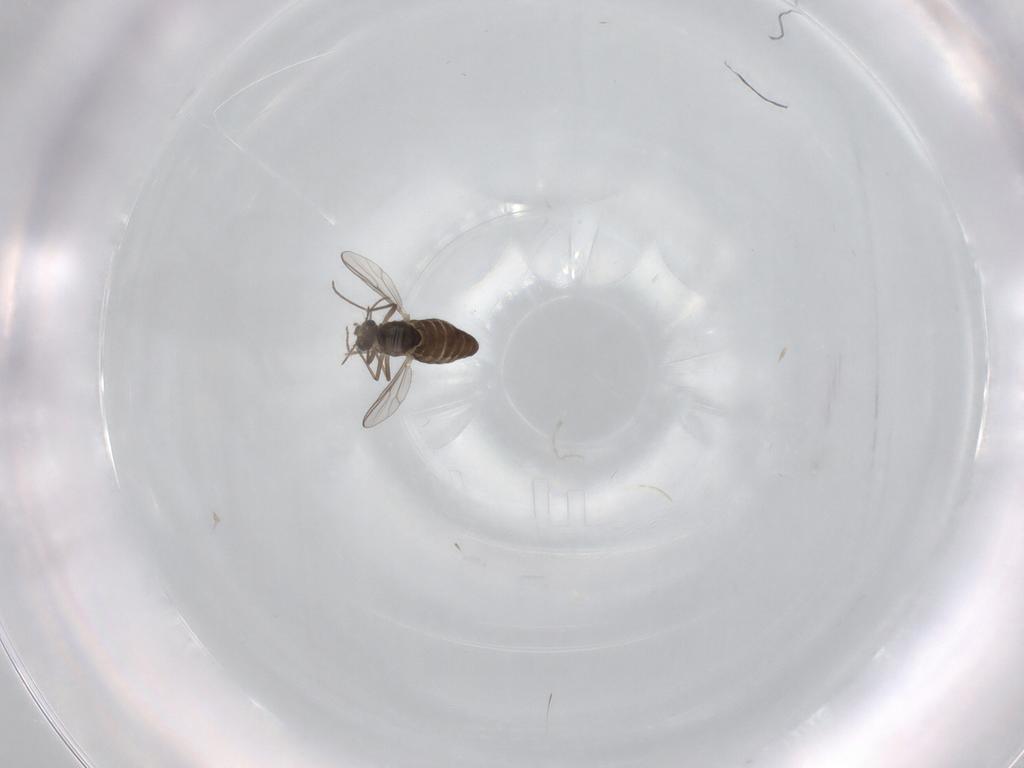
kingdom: Animalia
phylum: Arthropoda
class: Insecta
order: Diptera
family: Chironomidae
